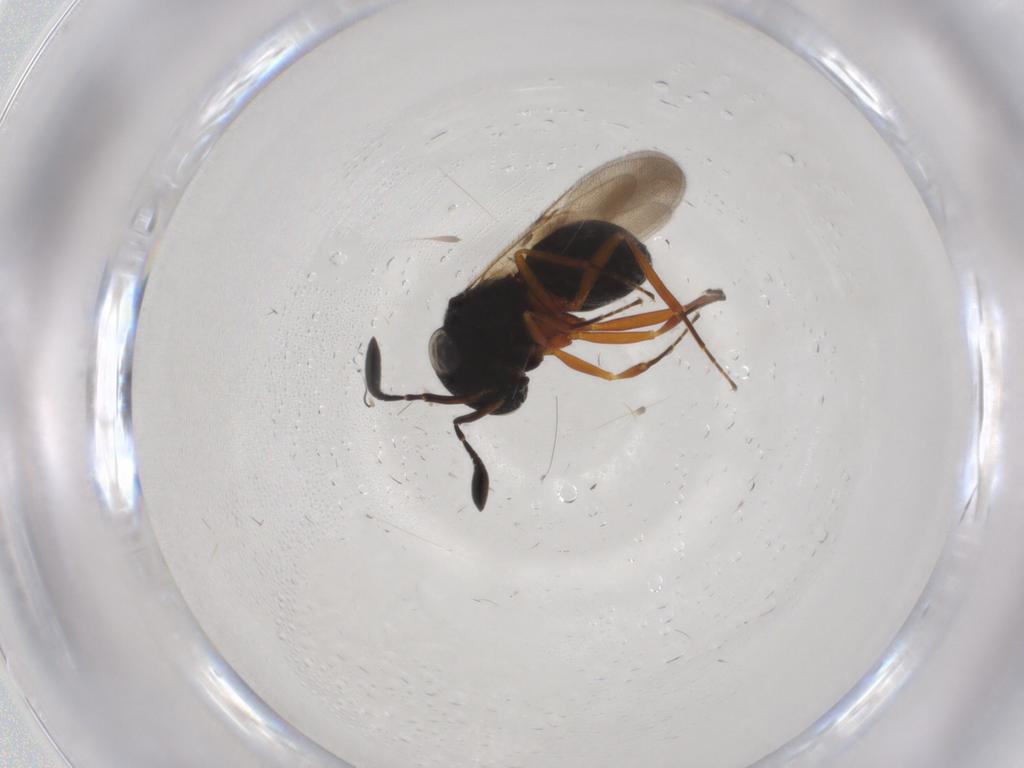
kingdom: Animalia
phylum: Arthropoda
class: Insecta
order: Hymenoptera
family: Scelionidae
